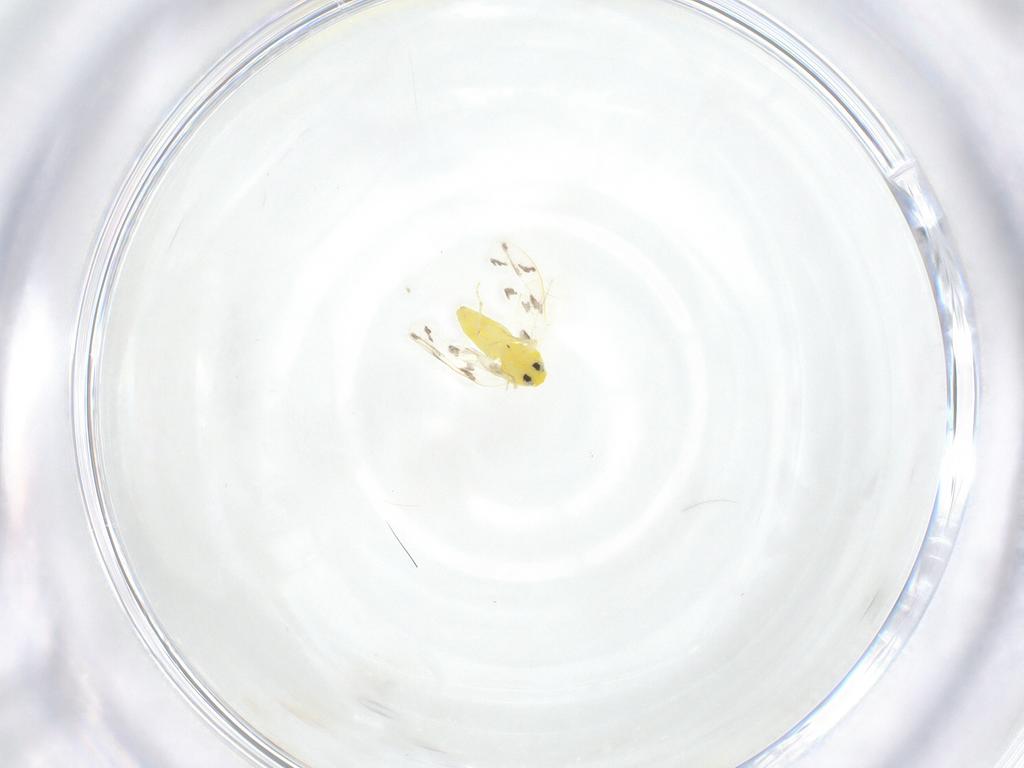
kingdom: Animalia
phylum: Arthropoda
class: Insecta
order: Hemiptera
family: Aleyrodidae
